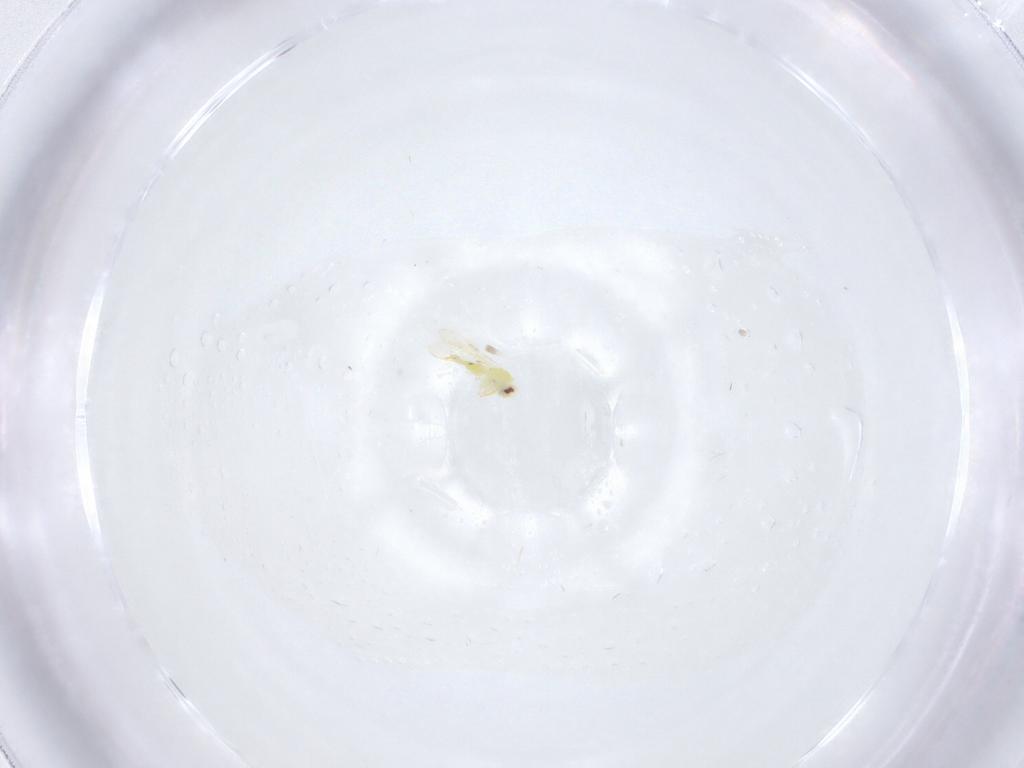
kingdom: Animalia
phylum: Arthropoda
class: Insecta
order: Hemiptera
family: Aleyrodidae
